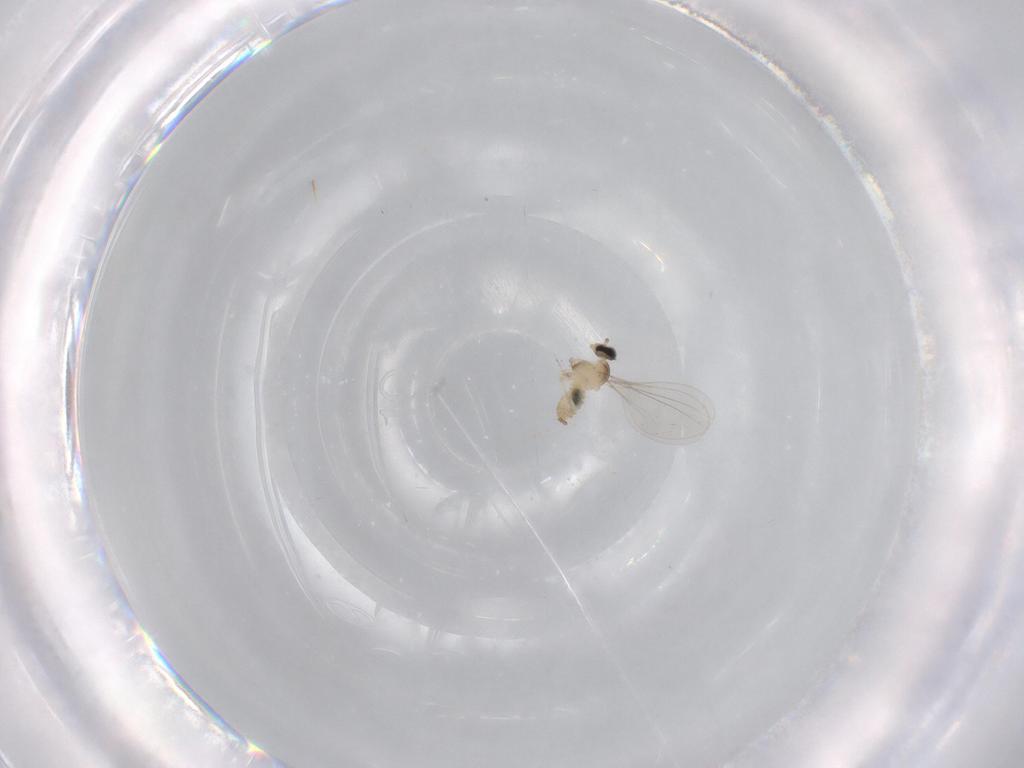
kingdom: Animalia
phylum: Arthropoda
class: Insecta
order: Diptera
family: Cecidomyiidae
